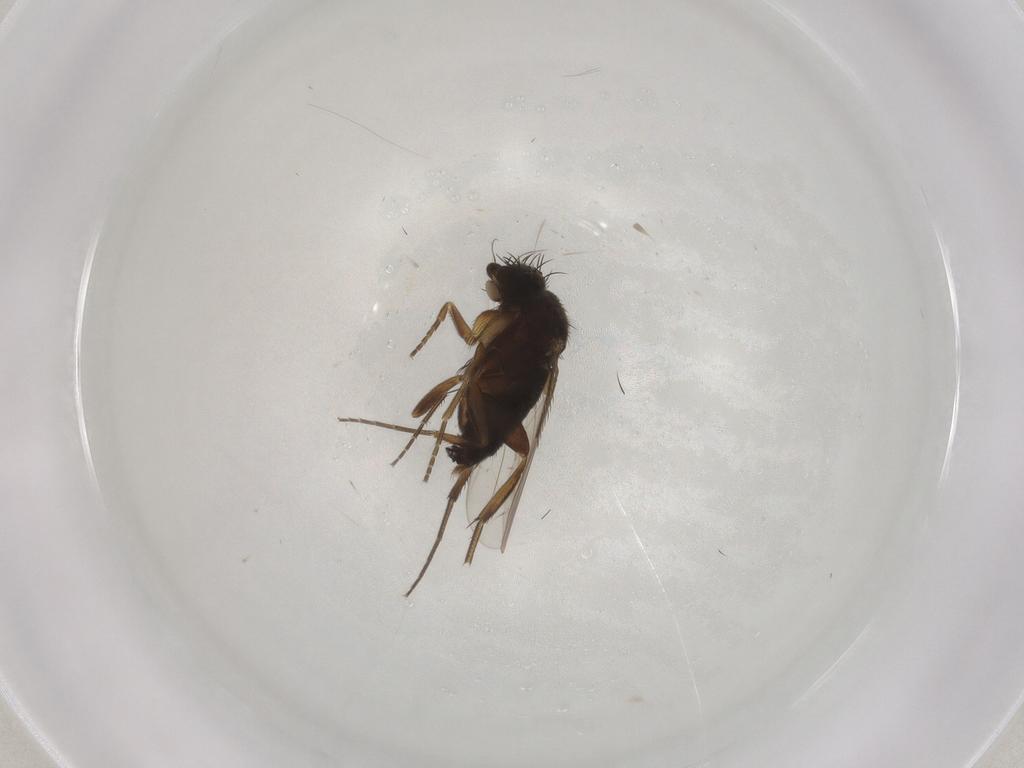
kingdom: Animalia
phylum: Arthropoda
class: Insecta
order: Diptera
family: Phoridae
